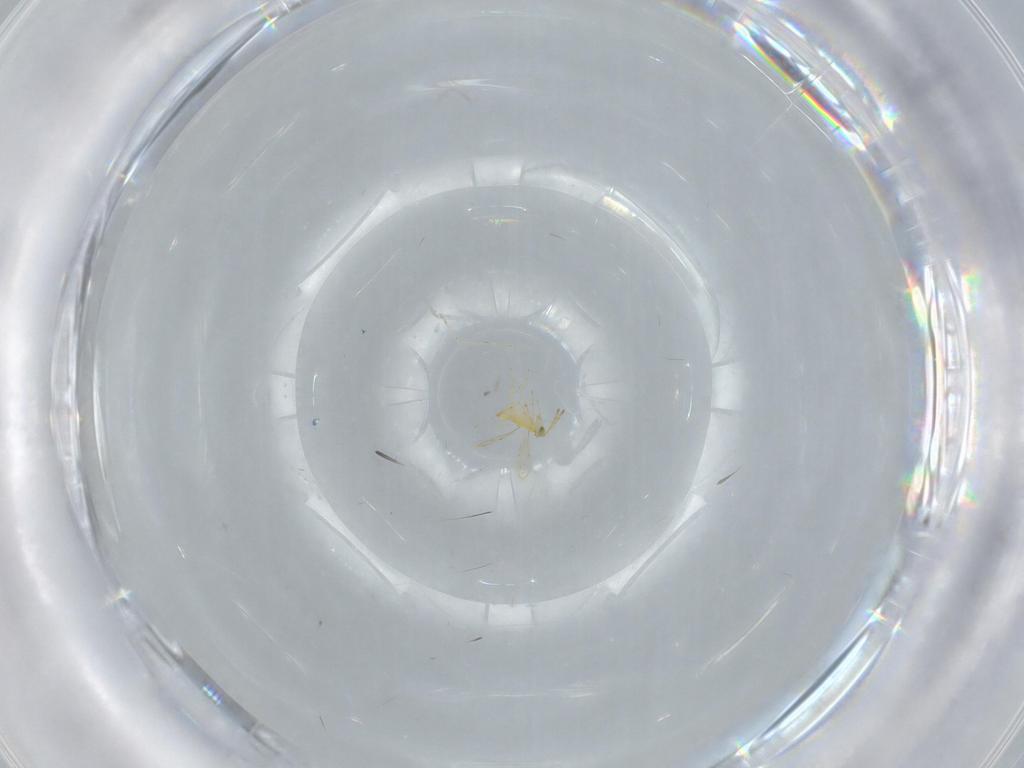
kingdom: Animalia
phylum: Arthropoda
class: Insecta
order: Hymenoptera
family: Aphelinidae
